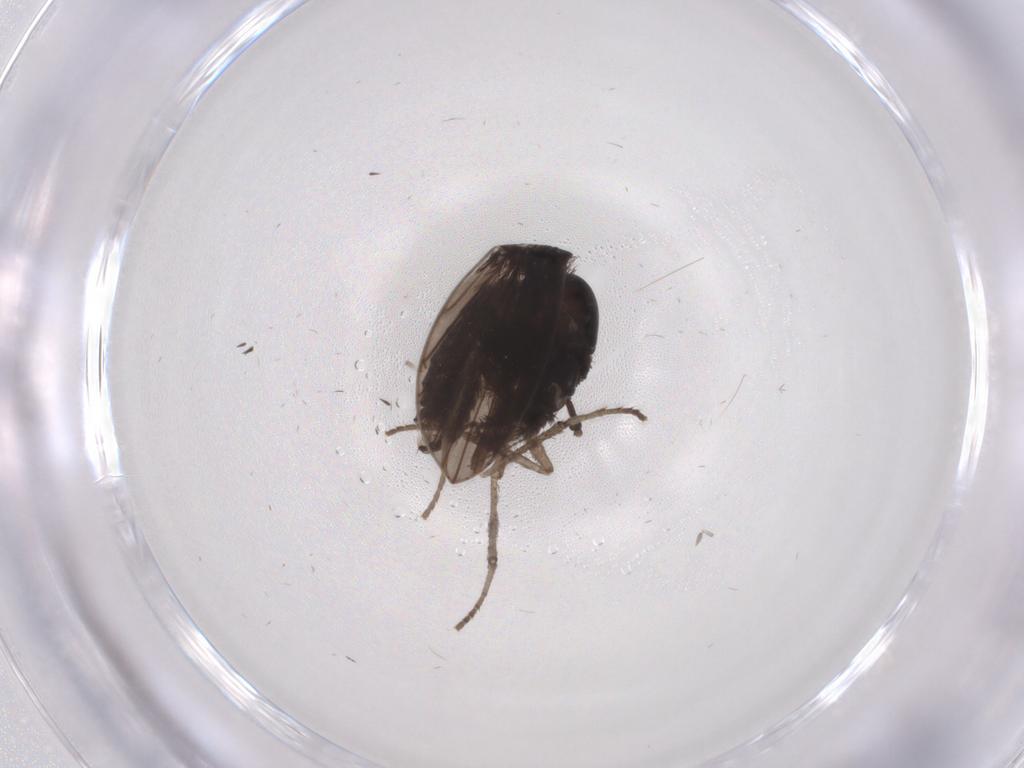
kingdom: Animalia
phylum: Arthropoda
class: Insecta
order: Diptera
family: Psychodidae
